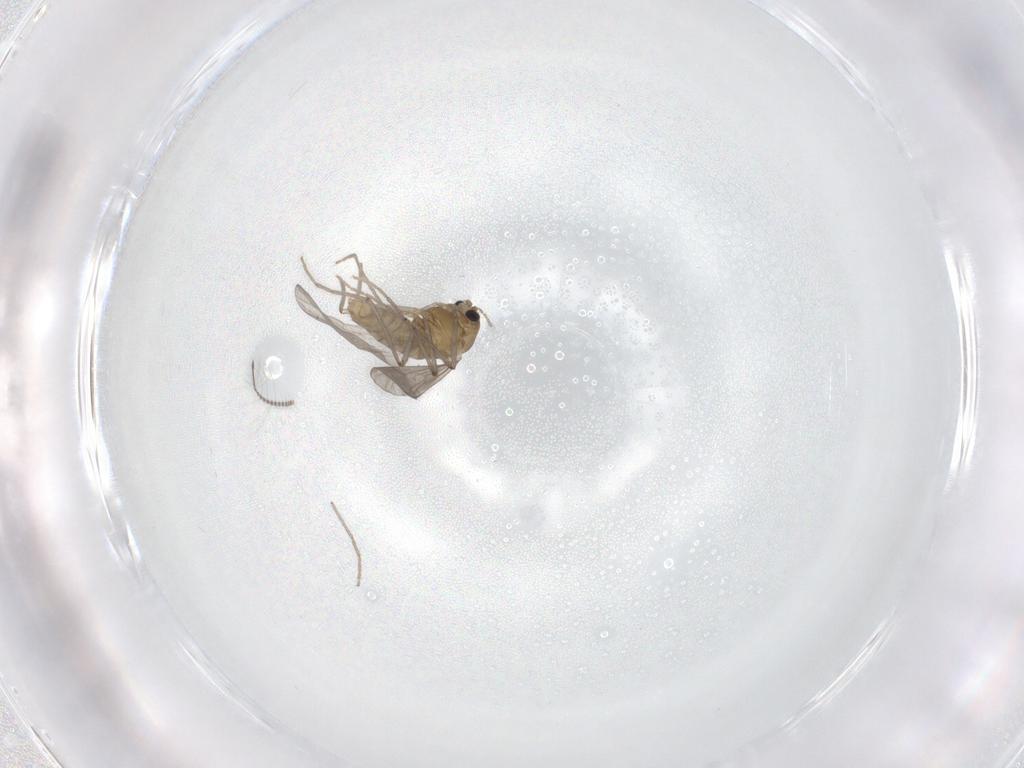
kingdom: Animalia
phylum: Arthropoda
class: Insecta
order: Diptera
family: Chironomidae
